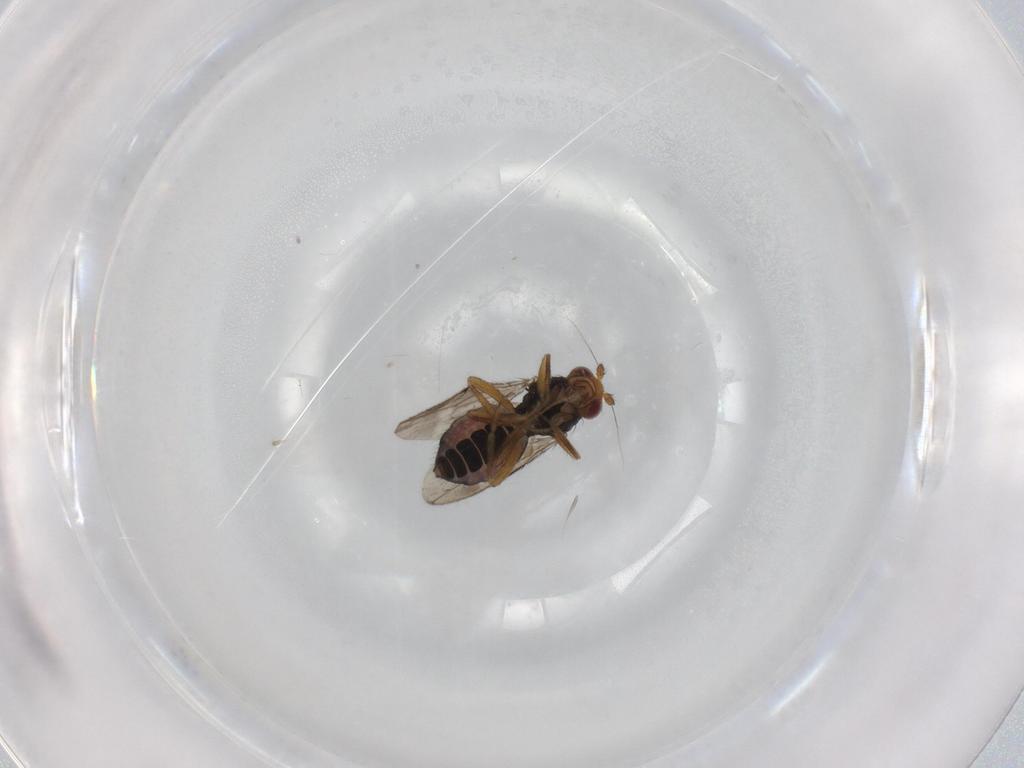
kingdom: Animalia
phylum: Arthropoda
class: Insecta
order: Diptera
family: Sphaeroceridae
